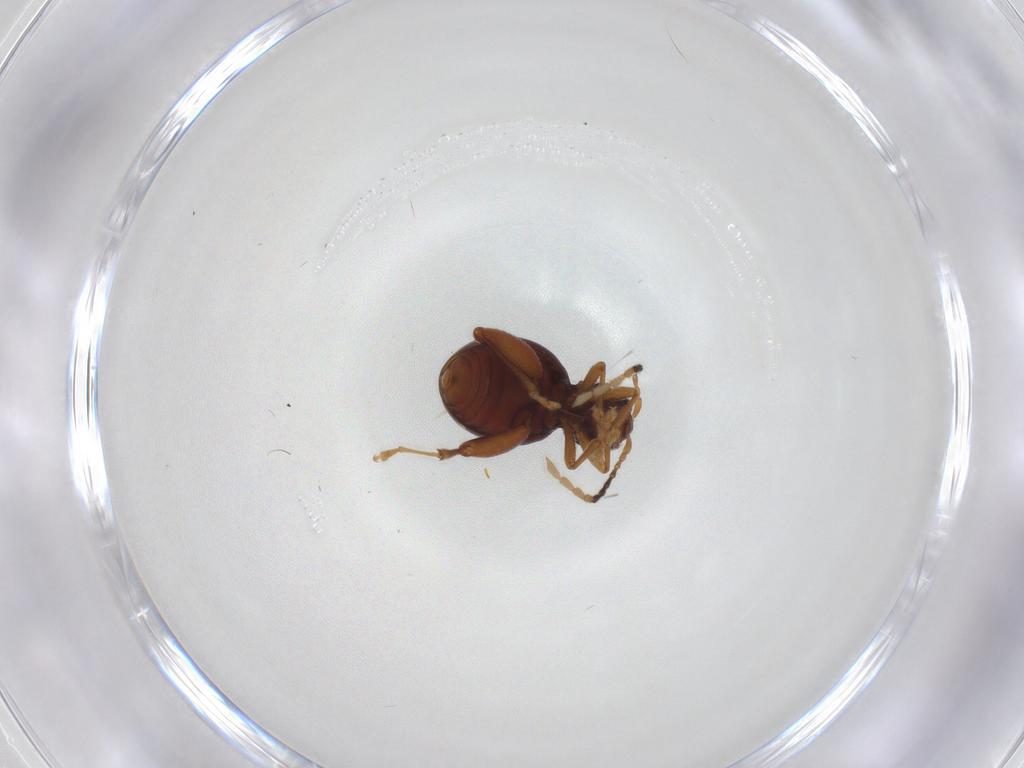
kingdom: Animalia
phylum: Arthropoda
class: Insecta
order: Coleoptera
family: Chrysomelidae
